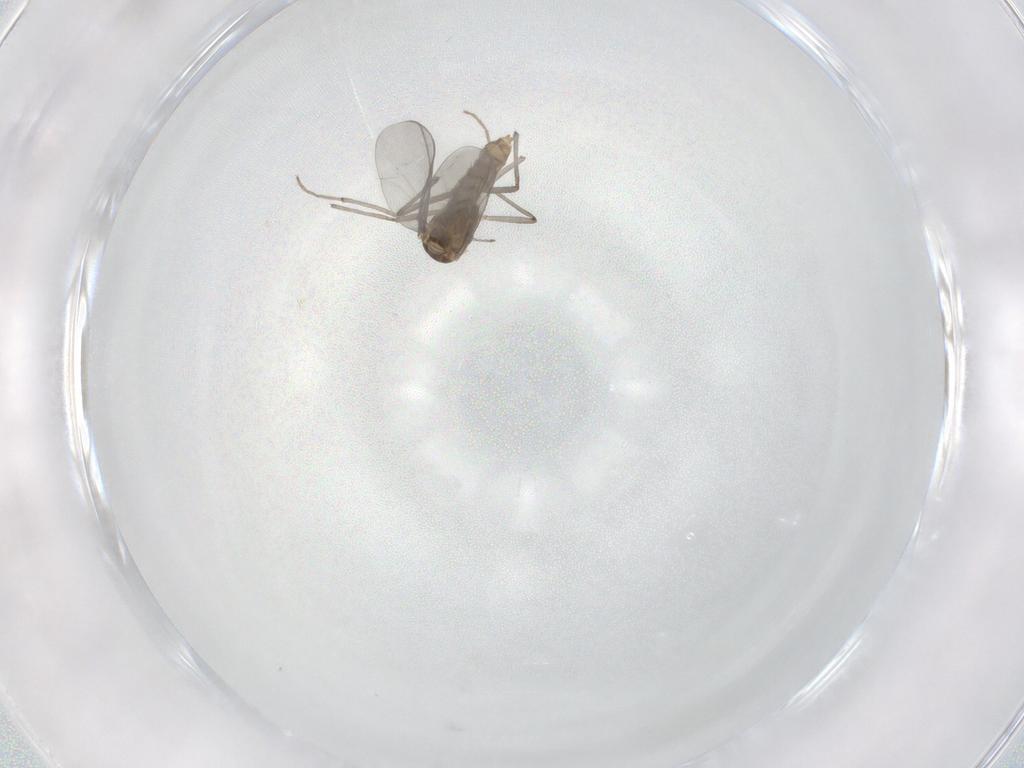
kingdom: Animalia
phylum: Arthropoda
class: Insecta
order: Diptera
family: Chironomidae
